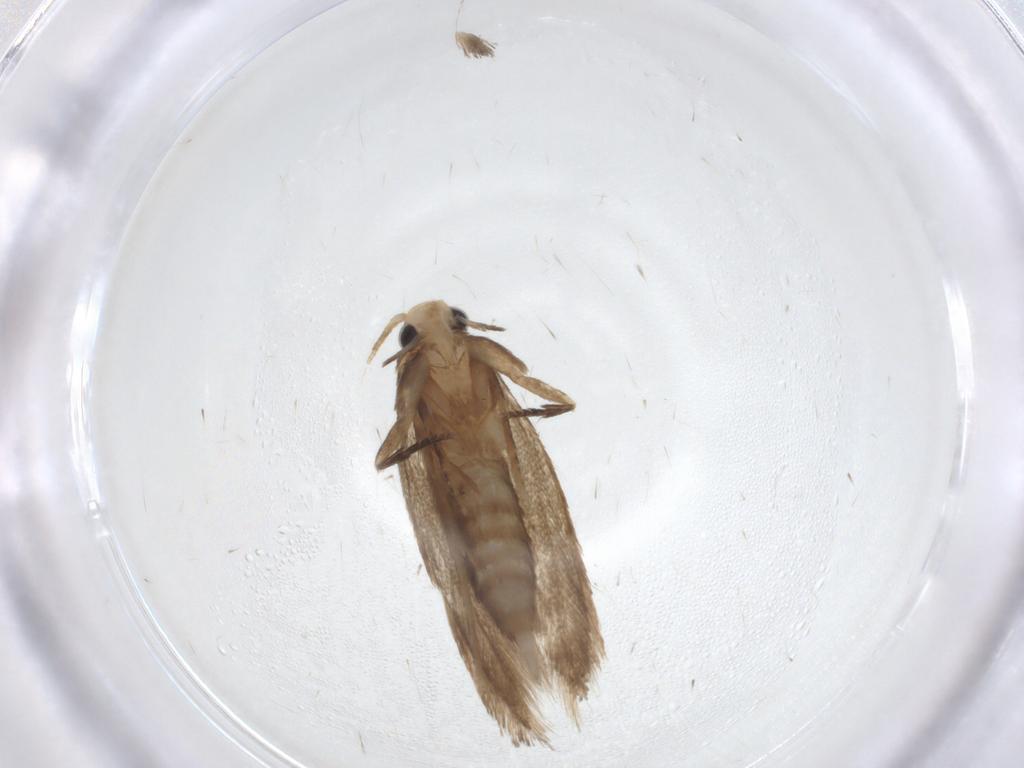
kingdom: Animalia
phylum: Arthropoda
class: Insecta
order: Lepidoptera
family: Tineidae
